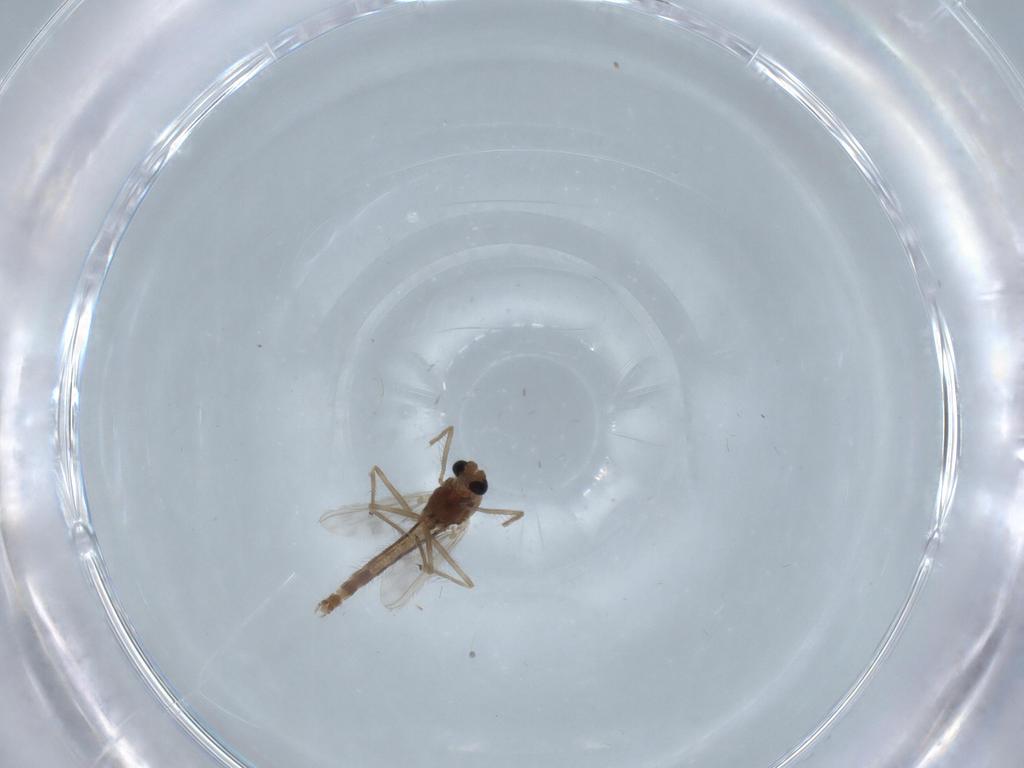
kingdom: Animalia
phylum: Arthropoda
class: Insecta
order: Diptera
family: Chironomidae
